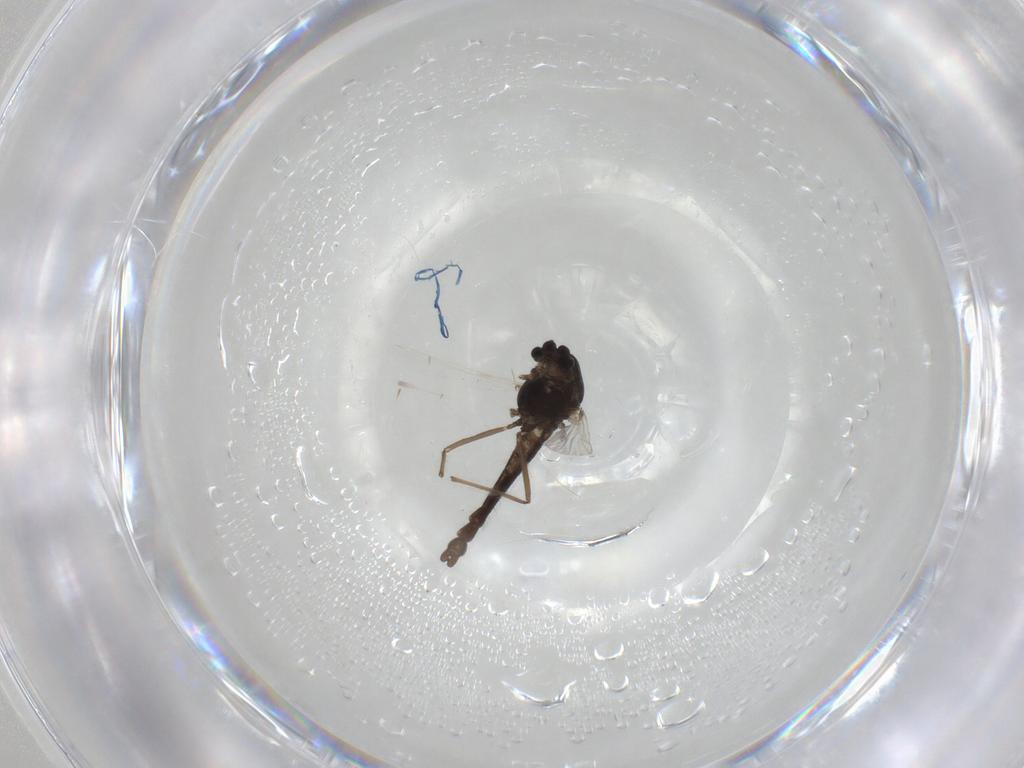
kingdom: Animalia
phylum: Arthropoda
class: Insecta
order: Diptera
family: Chironomidae
